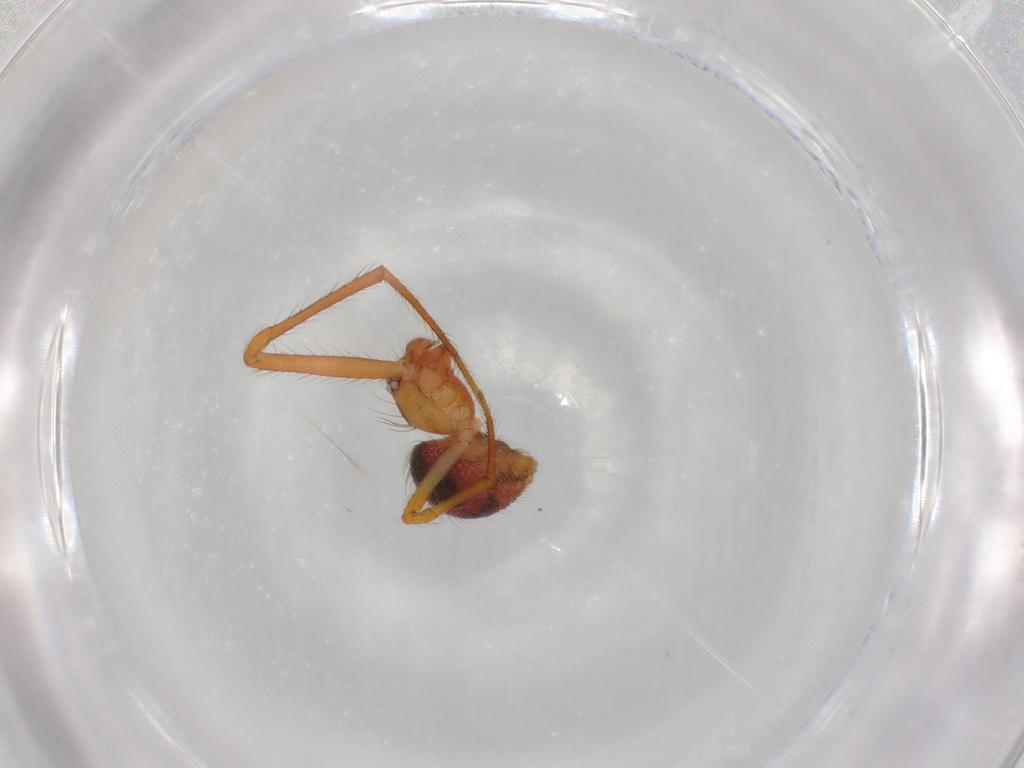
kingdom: Animalia
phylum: Arthropoda
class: Arachnida
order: Araneae
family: Theridiidae
